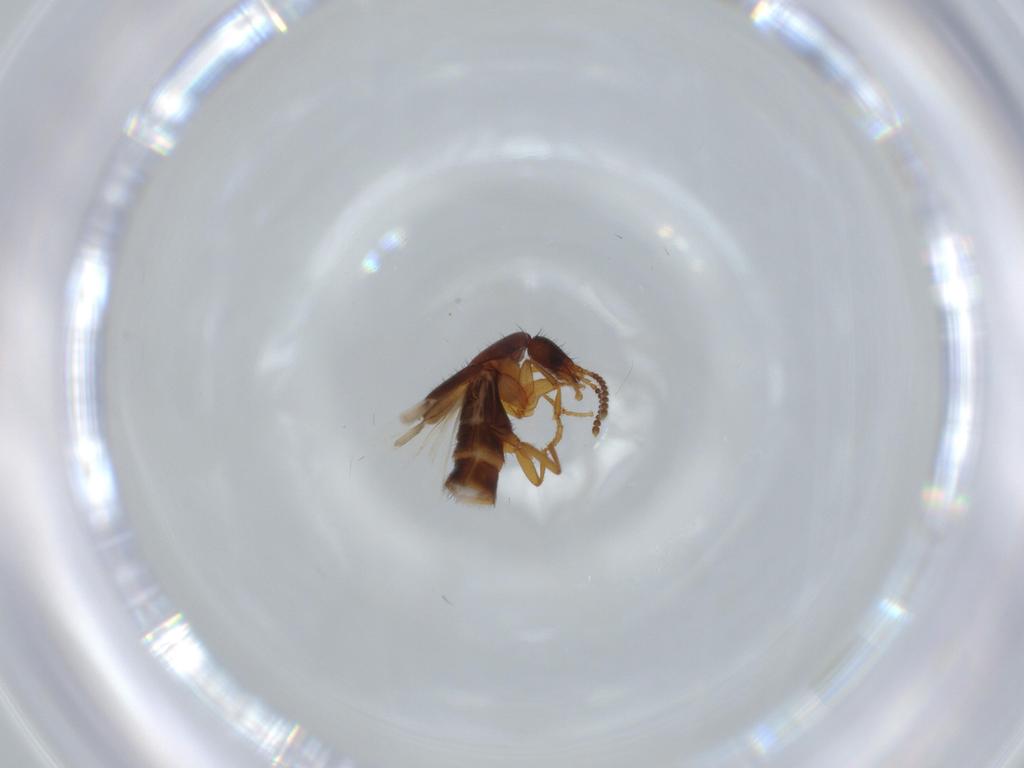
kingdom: Animalia
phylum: Arthropoda
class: Insecta
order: Coleoptera
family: Staphylinidae
